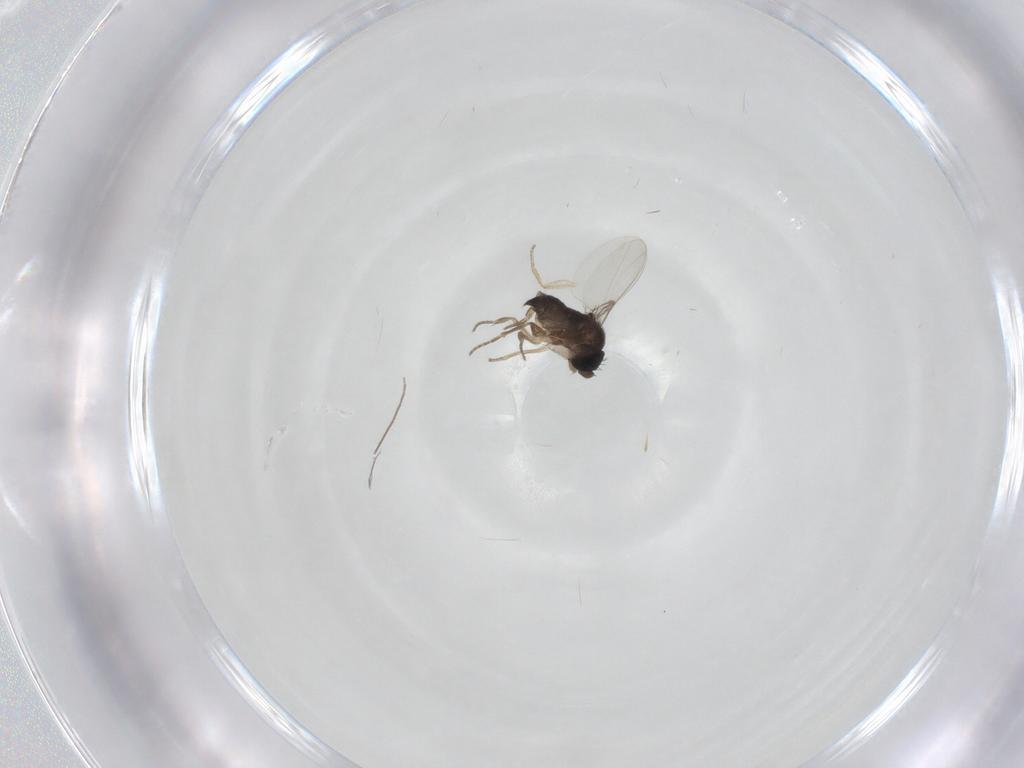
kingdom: Animalia
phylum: Arthropoda
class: Insecta
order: Diptera
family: Phoridae
